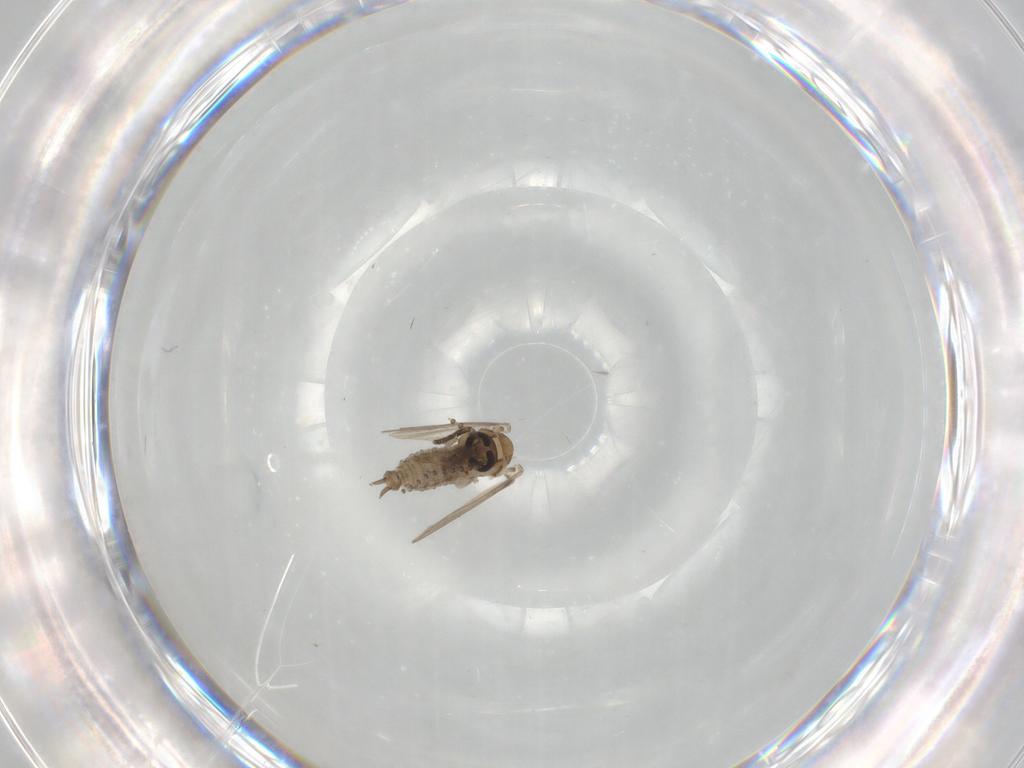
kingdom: Animalia
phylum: Arthropoda
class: Insecta
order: Diptera
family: Psychodidae
